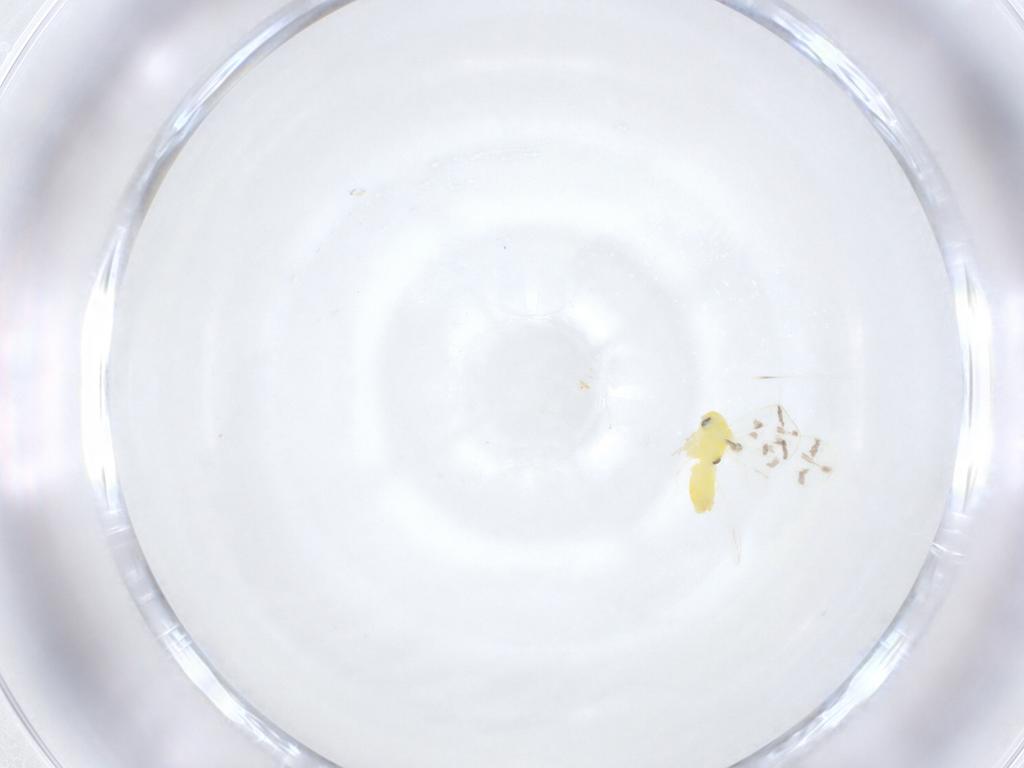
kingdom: Animalia
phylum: Arthropoda
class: Insecta
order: Hemiptera
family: Aleyrodidae
